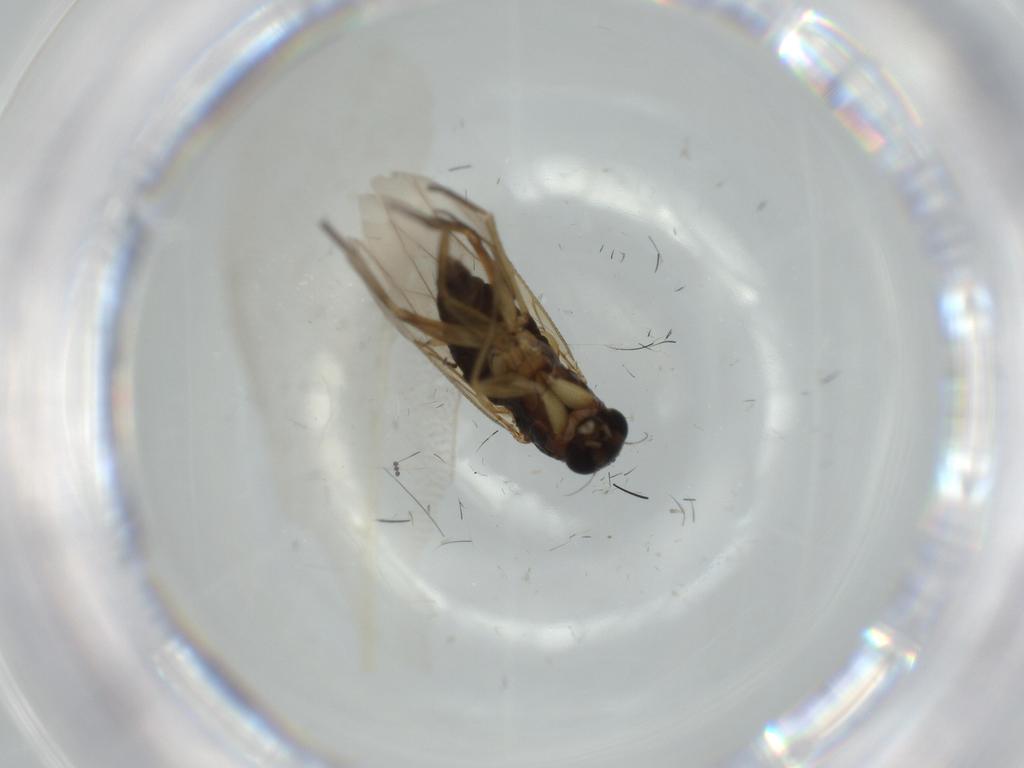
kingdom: Animalia
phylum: Arthropoda
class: Insecta
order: Diptera
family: Phoridae
